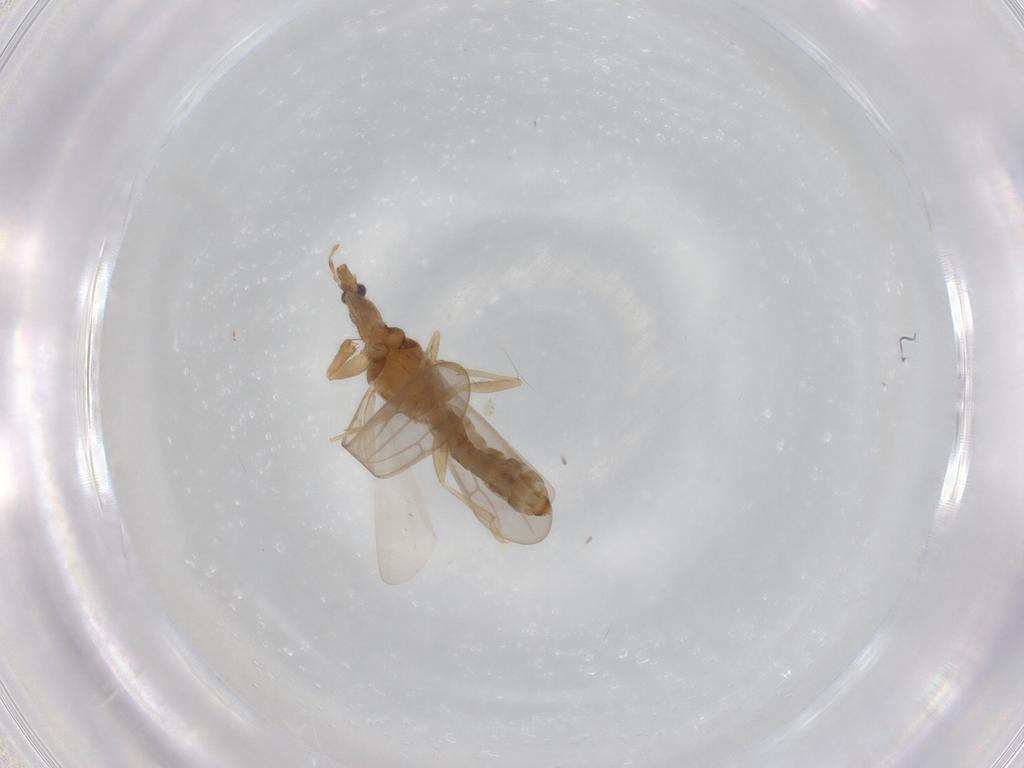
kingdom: Animalia
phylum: Arthropoda
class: Insecta
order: Hemiptera
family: Enicocephalidae
